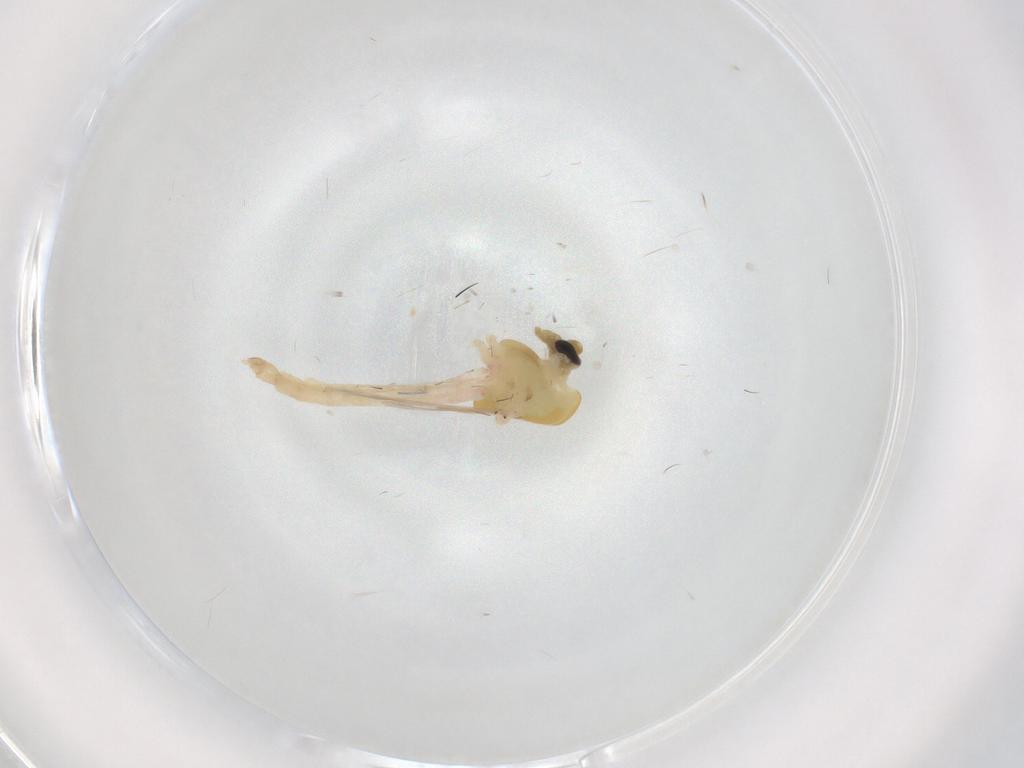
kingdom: Animalia
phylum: Arthropoda
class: Insecta
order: Diptera
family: Chironomidae
